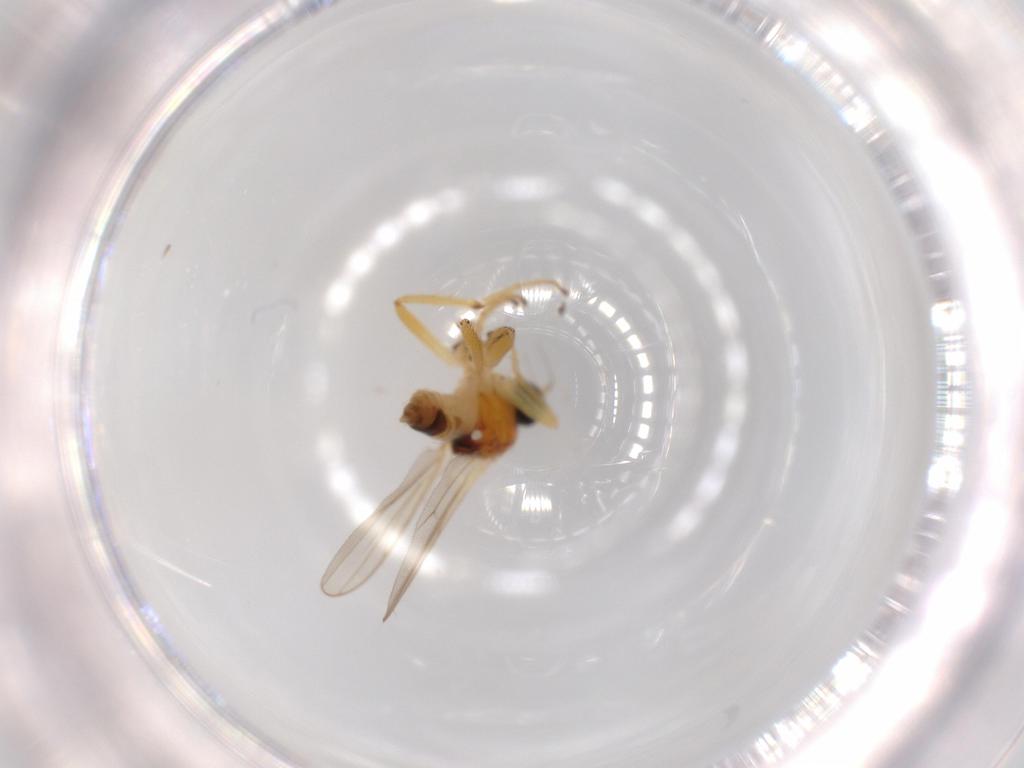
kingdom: Animalia
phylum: Arthropoda
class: Insecta
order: Diptera
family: Hybotidae
